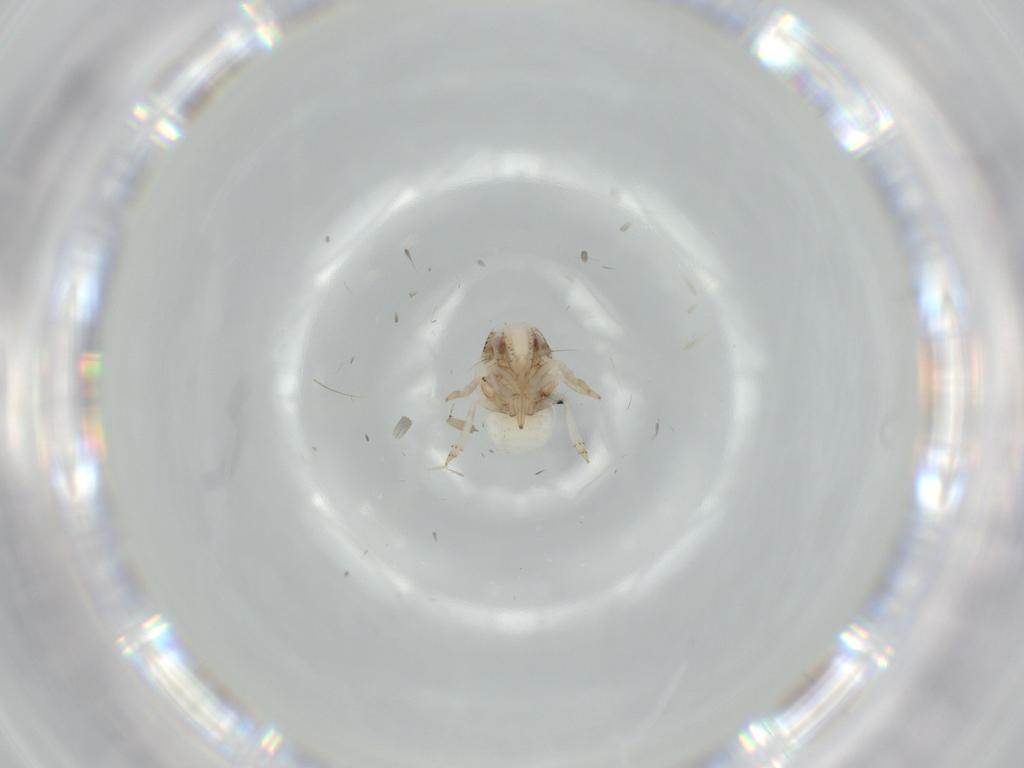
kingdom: Animalia
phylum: Arthropoda
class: Insecta
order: Hemiptera
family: Acanaloniidae
